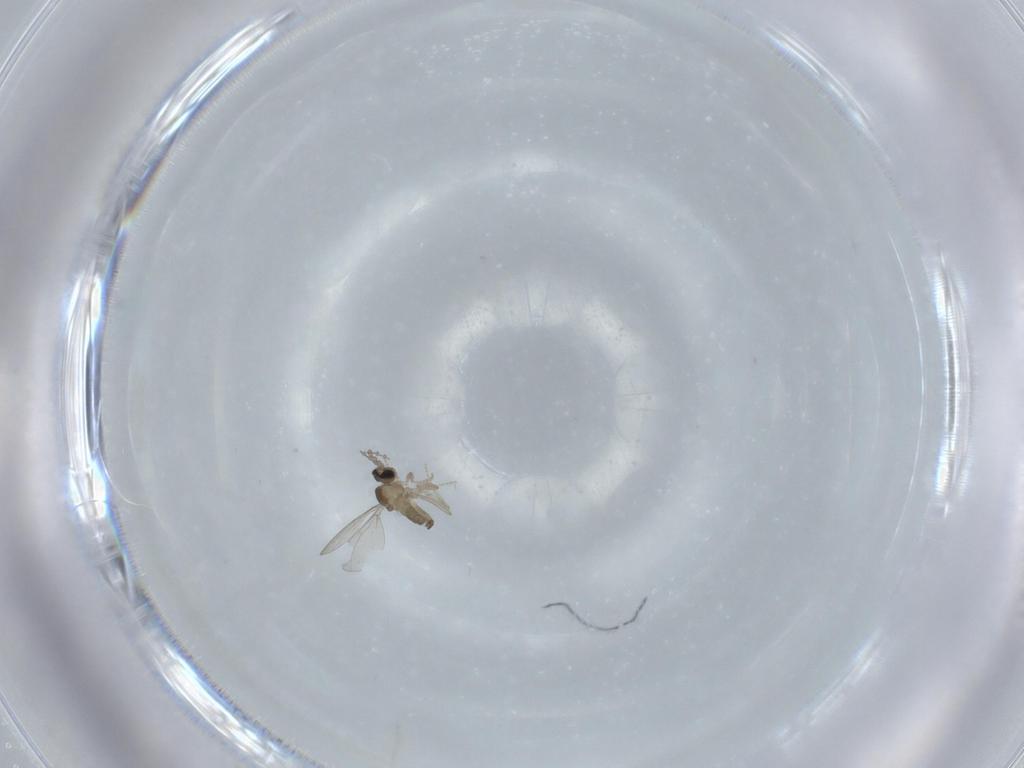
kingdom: Animalia
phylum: Arthropoda
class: Insecta
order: Diptera
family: Cecidomyiidae
